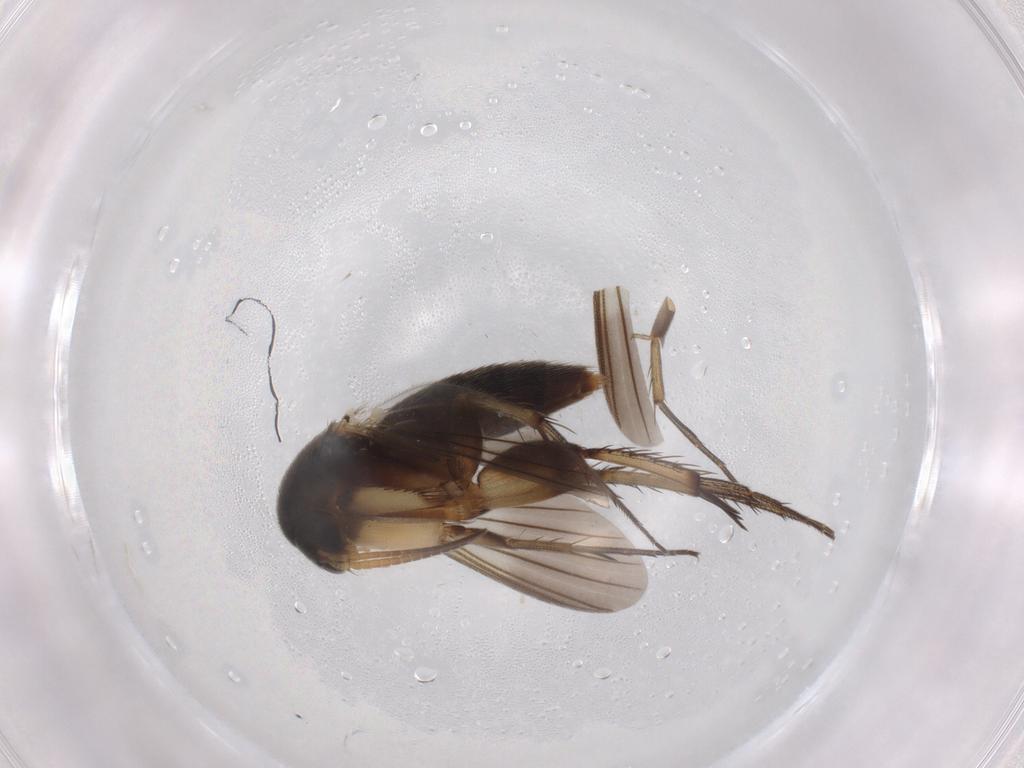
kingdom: Animalia
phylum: Arthropoda
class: Insecta
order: Diptera
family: Mycetophilidae
